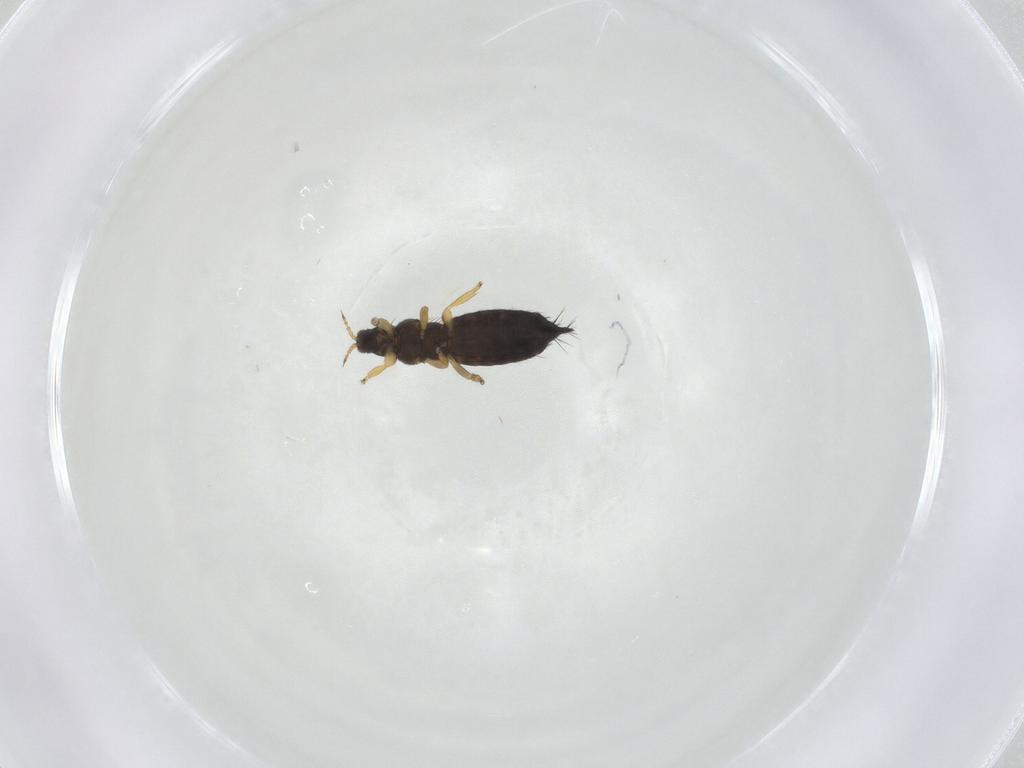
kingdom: Animalia
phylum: Arthropoda
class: Insecta
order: Thysanoptera
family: Thripidae
